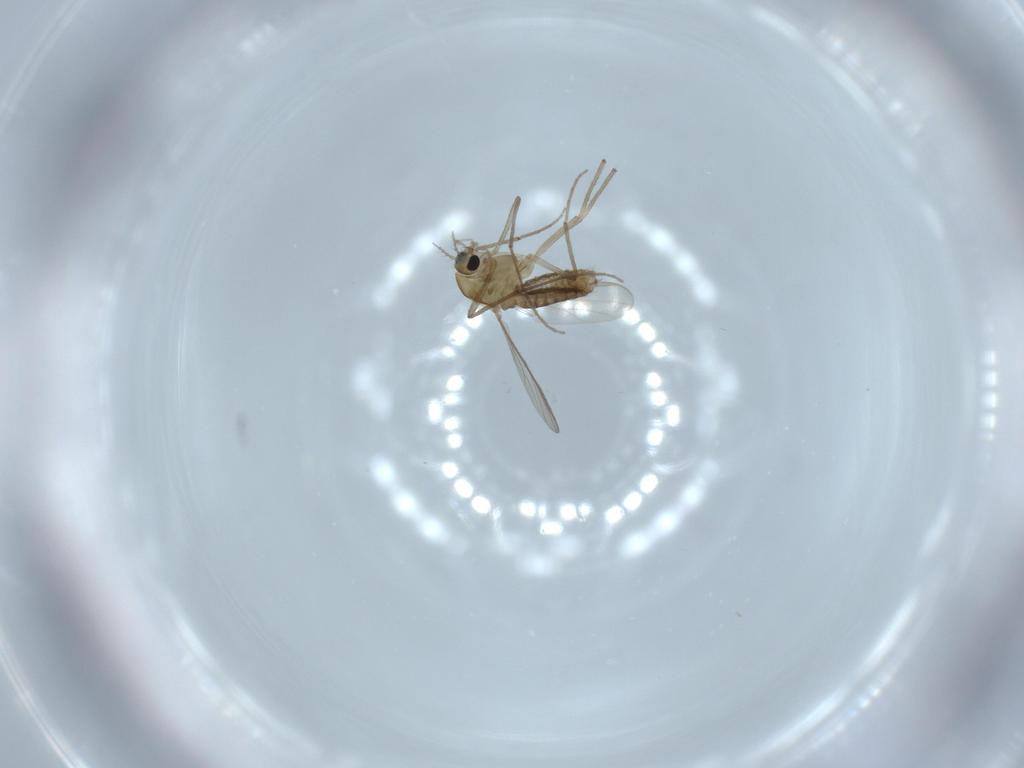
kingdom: Animalia
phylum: Arthropoda
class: Insecta
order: Diptera
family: Chironomidae
